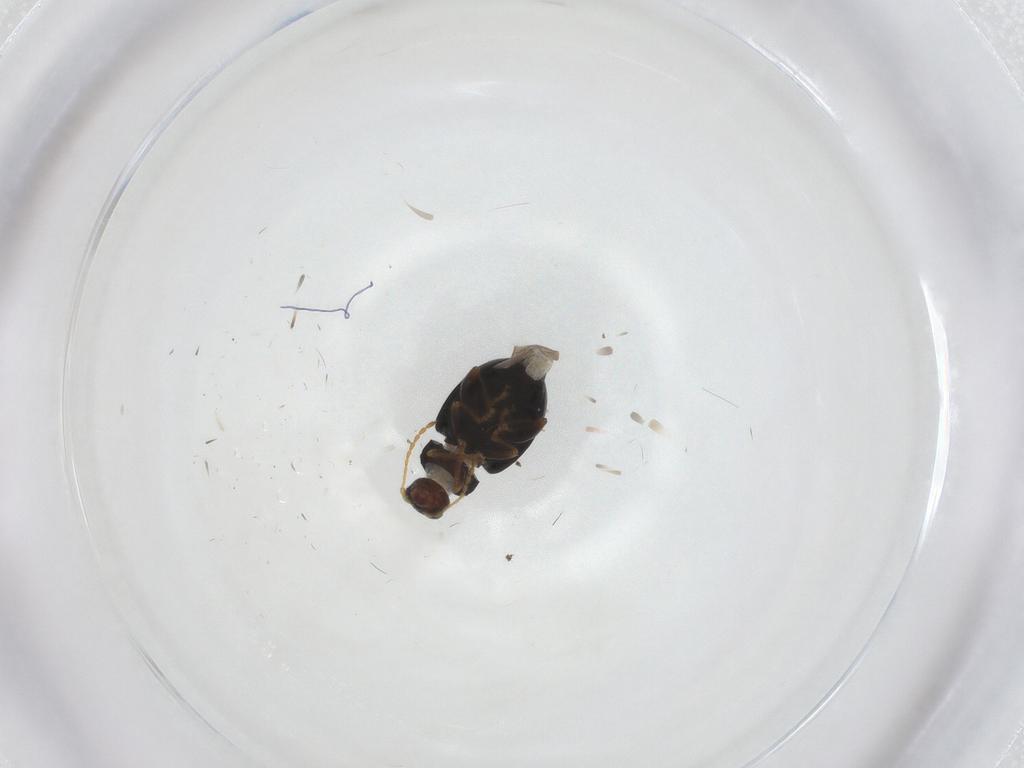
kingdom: Animalia
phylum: Arthropoda
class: Insecta
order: Coleoptera
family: Chrysomelidae
